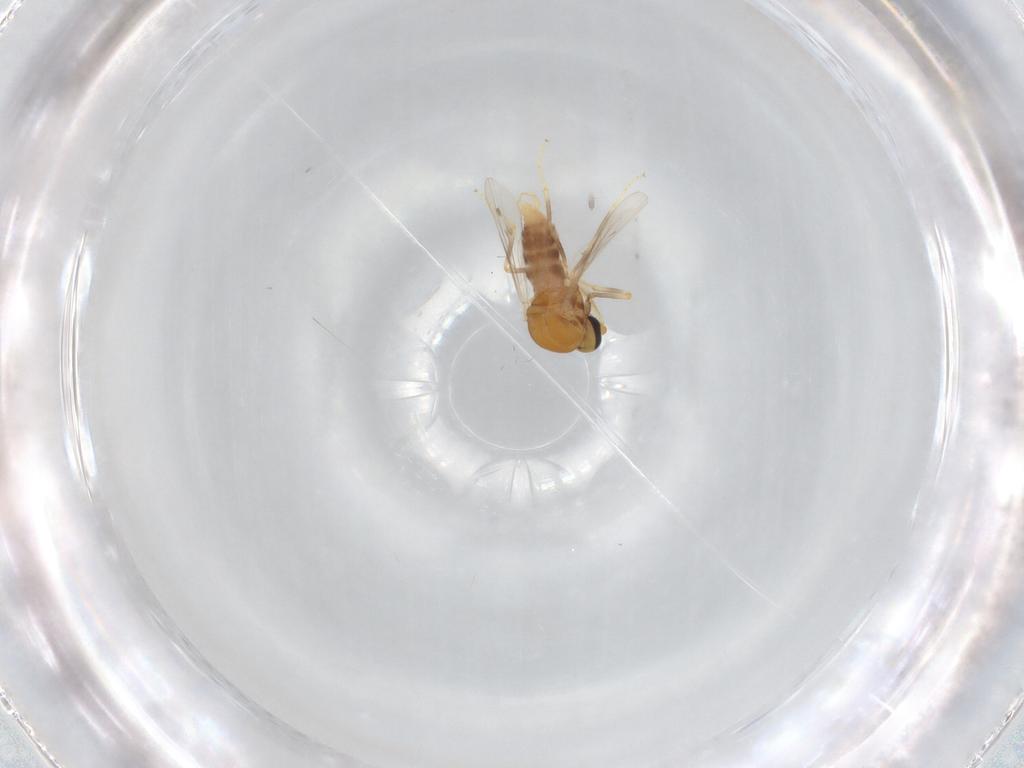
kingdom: Animalia
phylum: Arthropoda
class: Insecta
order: Diptera
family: Ceratopogonidae
